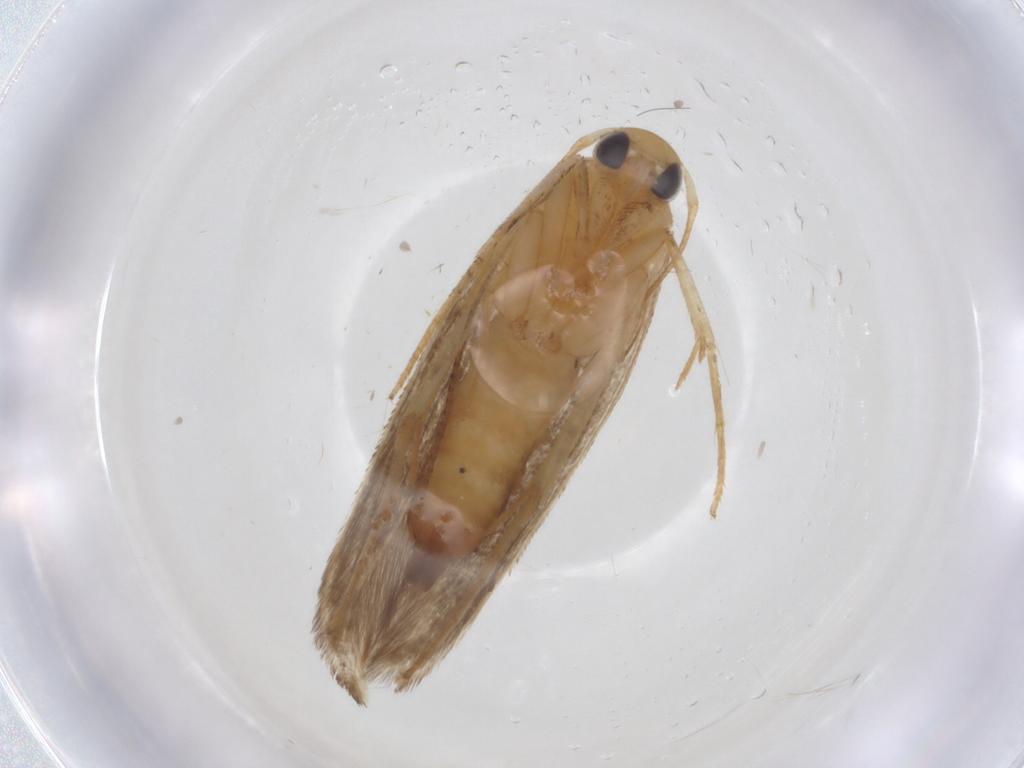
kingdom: Animalia
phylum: Arthropoda
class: Insecta
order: Lepidoptera
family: Momphidae
